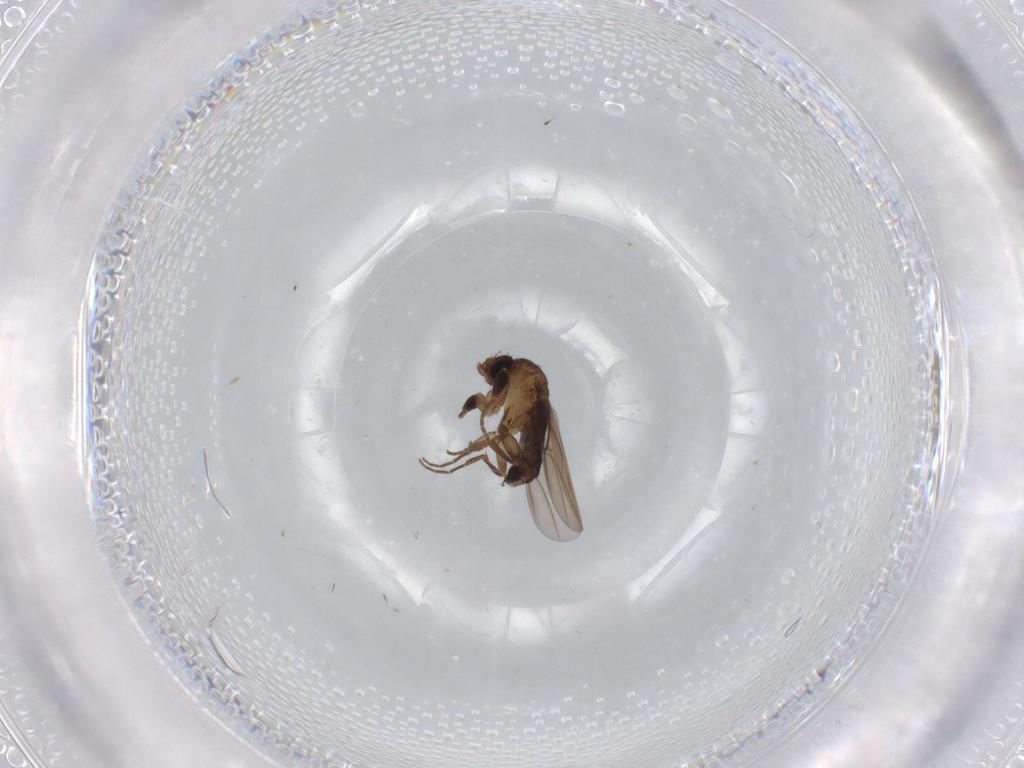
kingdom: Animalia
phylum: Arthropoda
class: Insecta
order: Diptera
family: Phoridae
